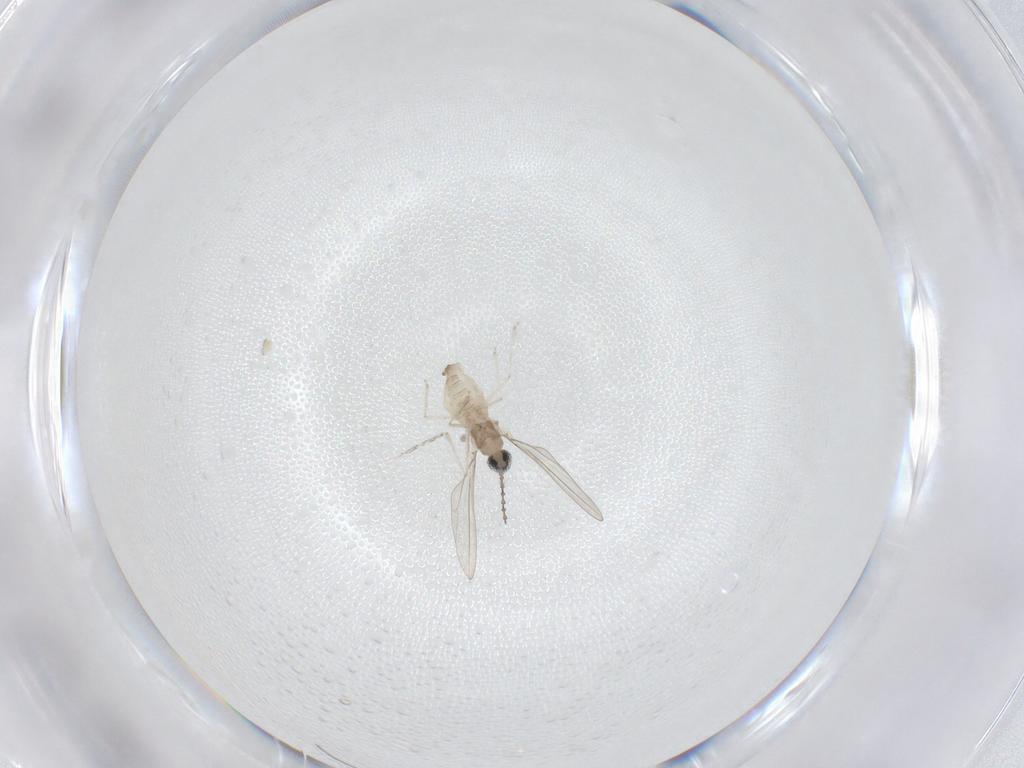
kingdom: Animalia
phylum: Arthropoda
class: Insecta
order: Diptera
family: Cecidomyiidae
